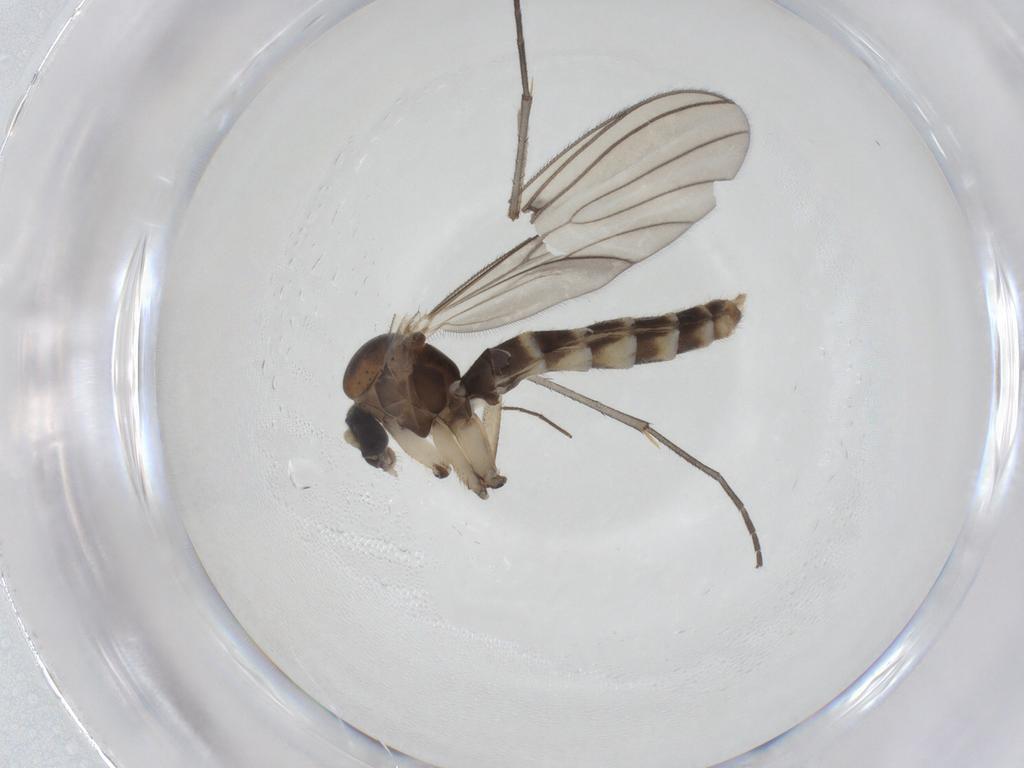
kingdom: Animalia
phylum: Arthropoda
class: Insecta
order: Diptera
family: Mycetophilidae
